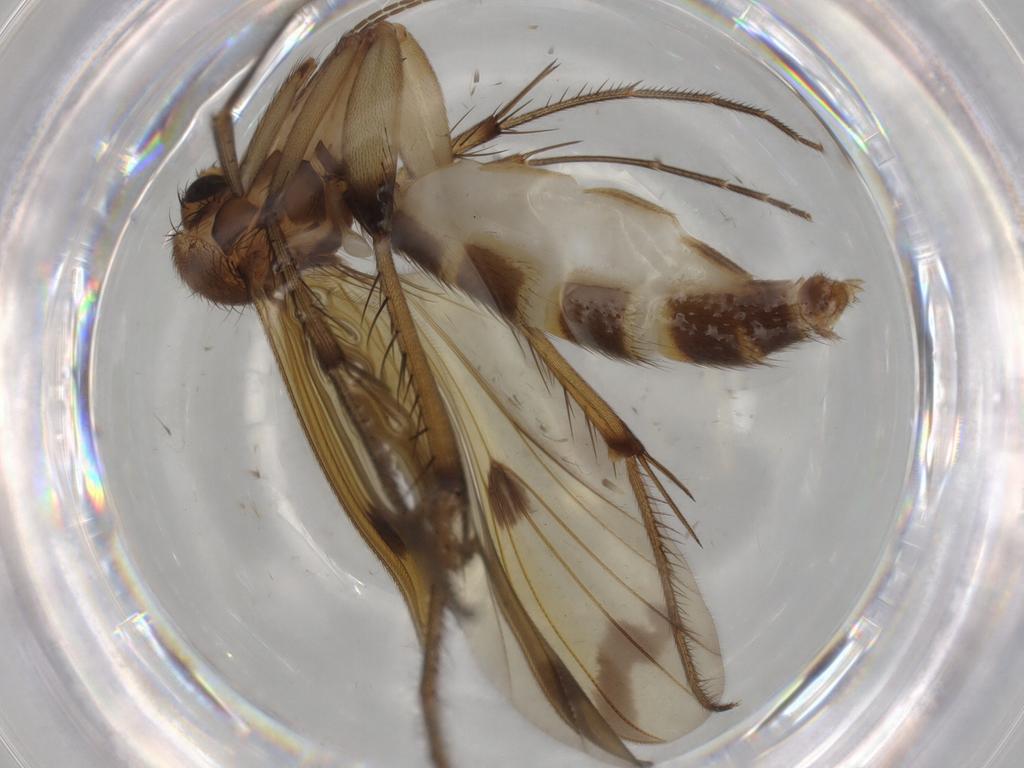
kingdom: Animalia
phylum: Arthropoda
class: Insecta
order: Diptera
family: Mycetophilidae
